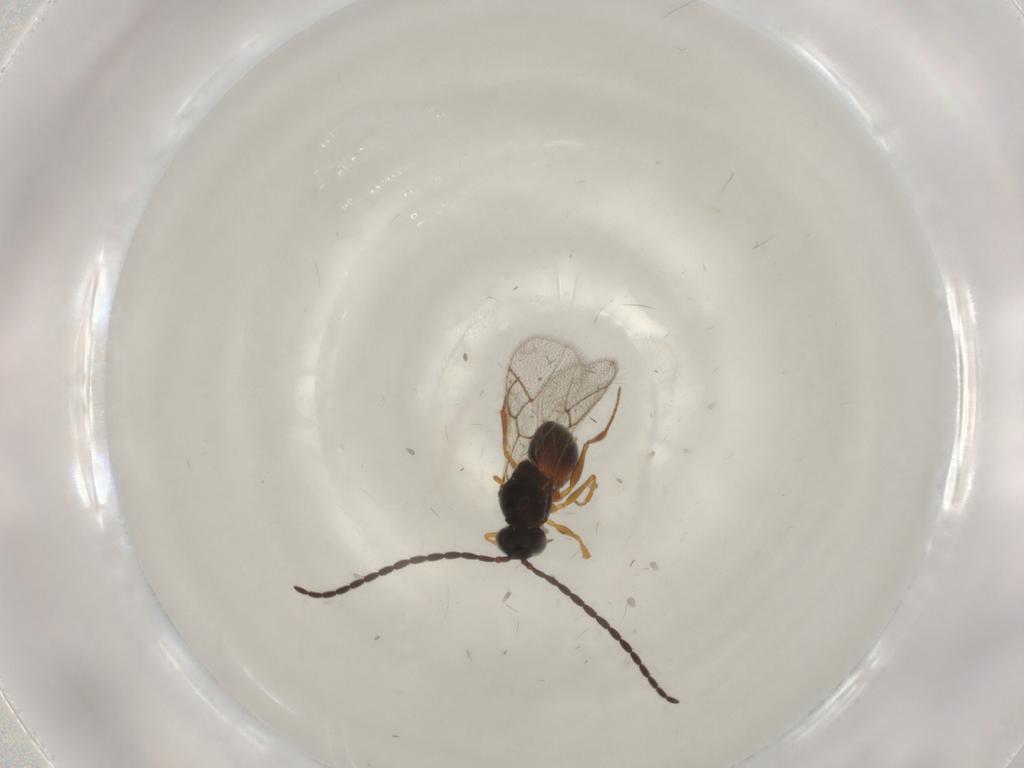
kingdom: Animalia
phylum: Arthropoda
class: Insecta
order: Hymenoptera
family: Figitidae
